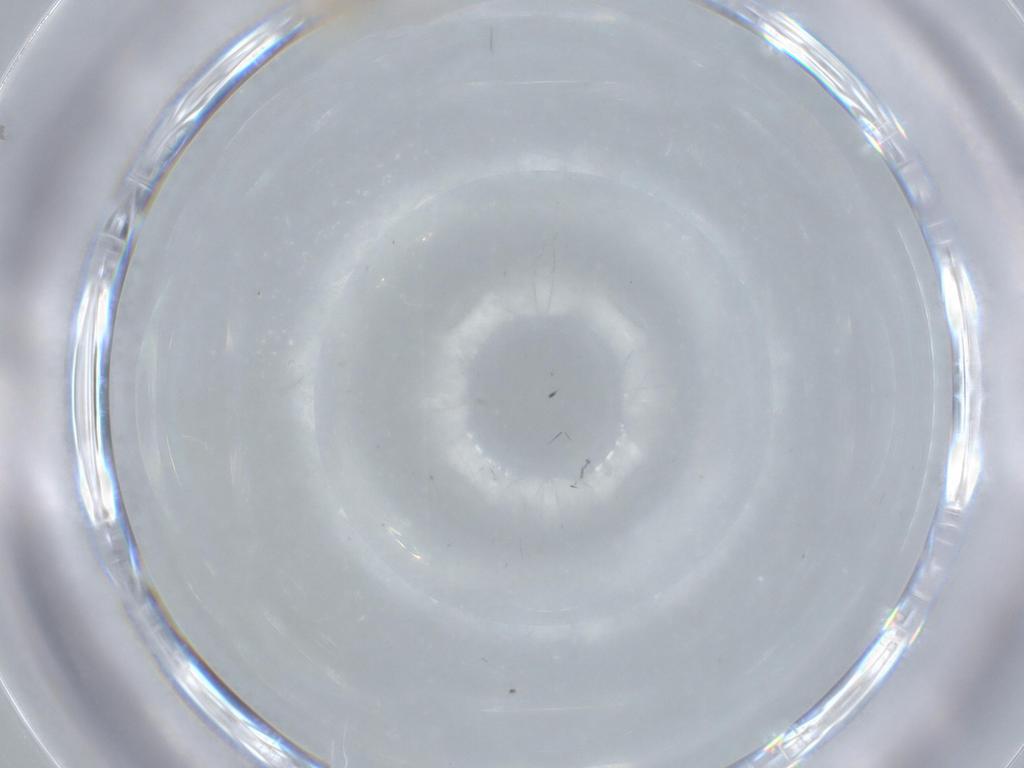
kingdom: Animalia
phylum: Arthropoda
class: Insecta
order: Diptera
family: Cecidomyiidae
